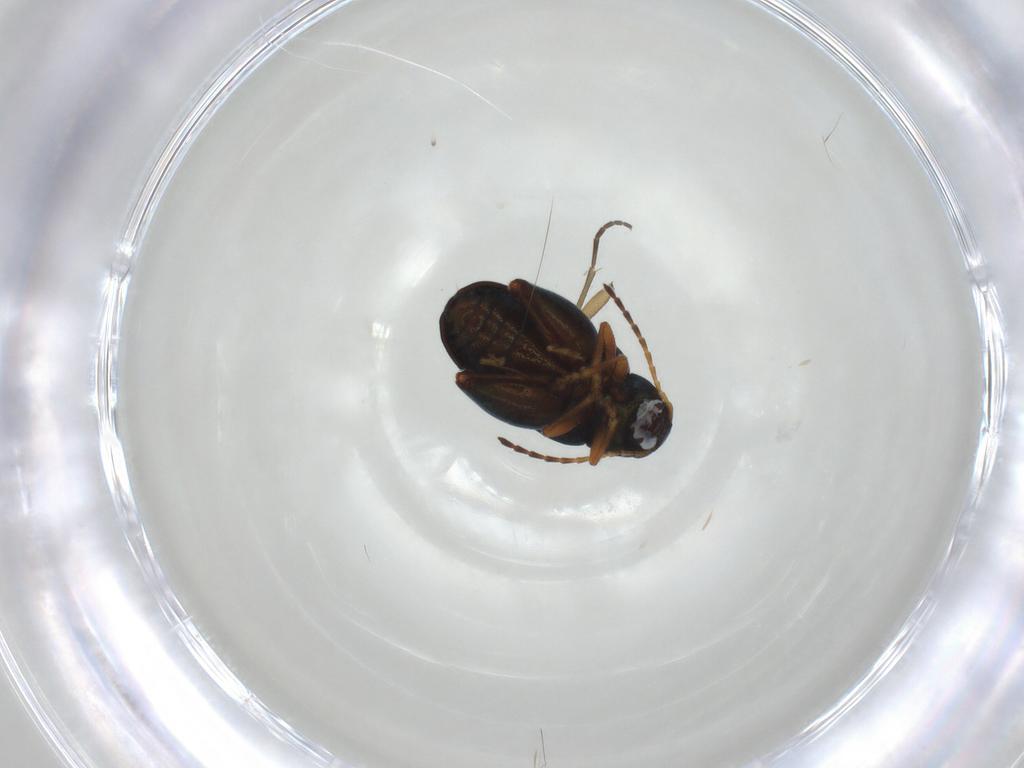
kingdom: Animalia
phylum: Arthropoda
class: Insecta
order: Coleoptera
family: Chrysomelidae
